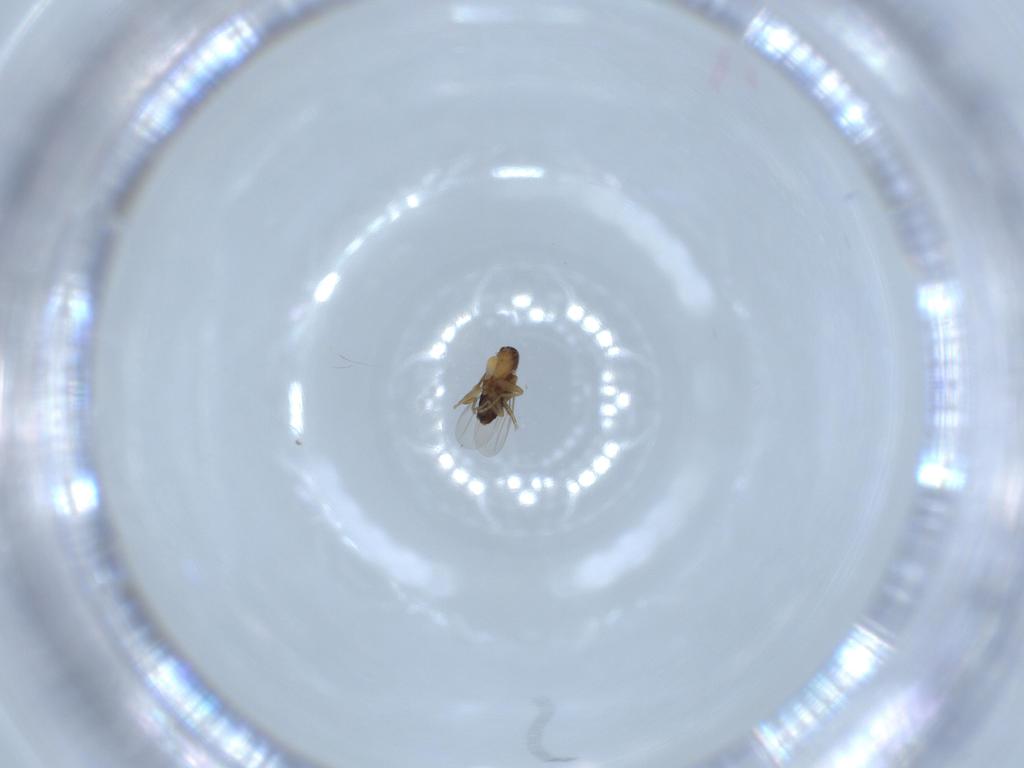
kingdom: Animalia
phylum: Arthropoda
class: Insecta
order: Diptera
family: Phoridae
